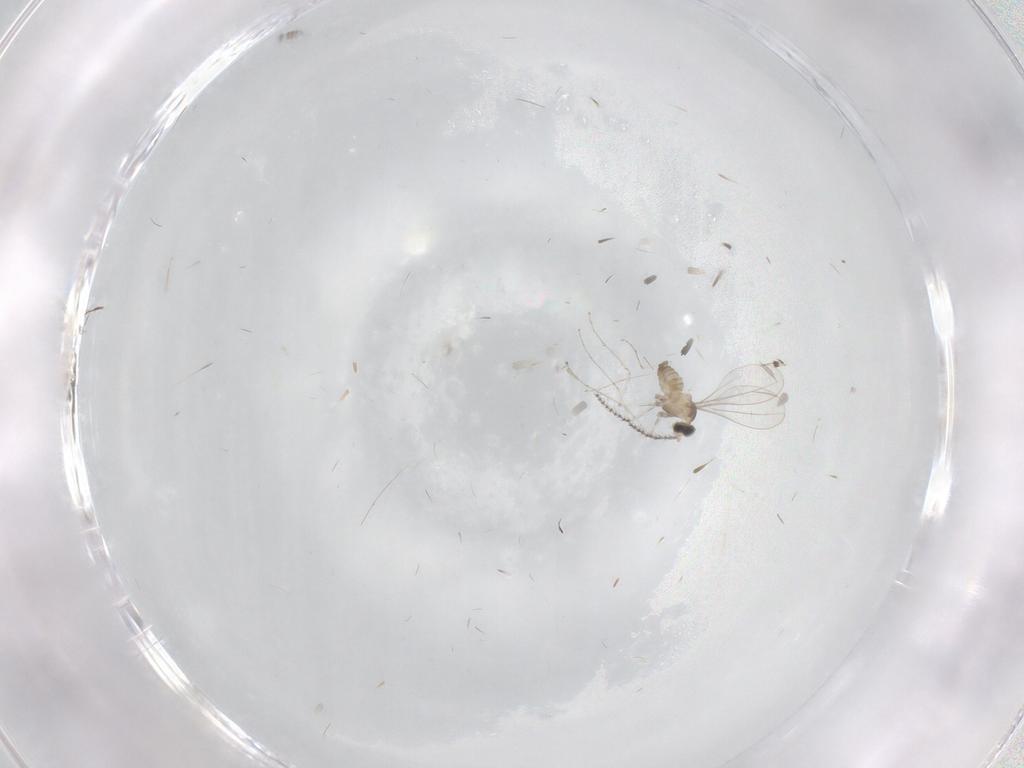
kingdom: Animalia
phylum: Arthropoda
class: Insecta
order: Diptera
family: Cecidomyiidae
